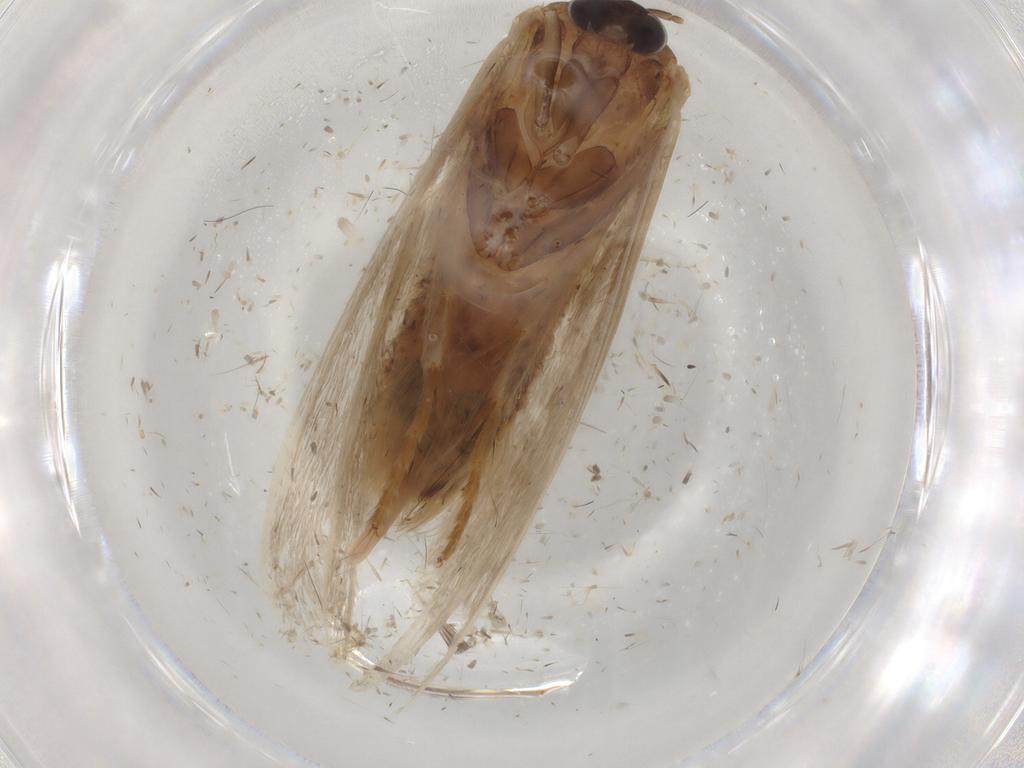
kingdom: Animalia
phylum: Arthropoda
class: Insecta
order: Lepidoptera
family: Psychidae
